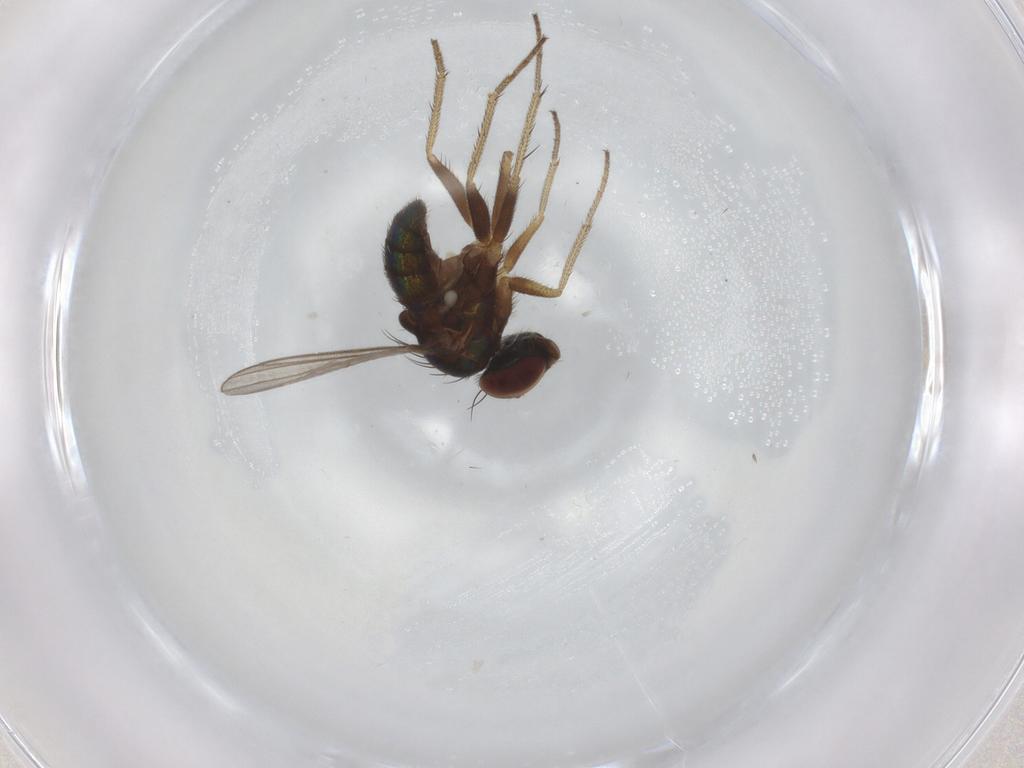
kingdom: Animalia
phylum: Arthropoda
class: Insecta
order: Diptera
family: Dolichopodidae
